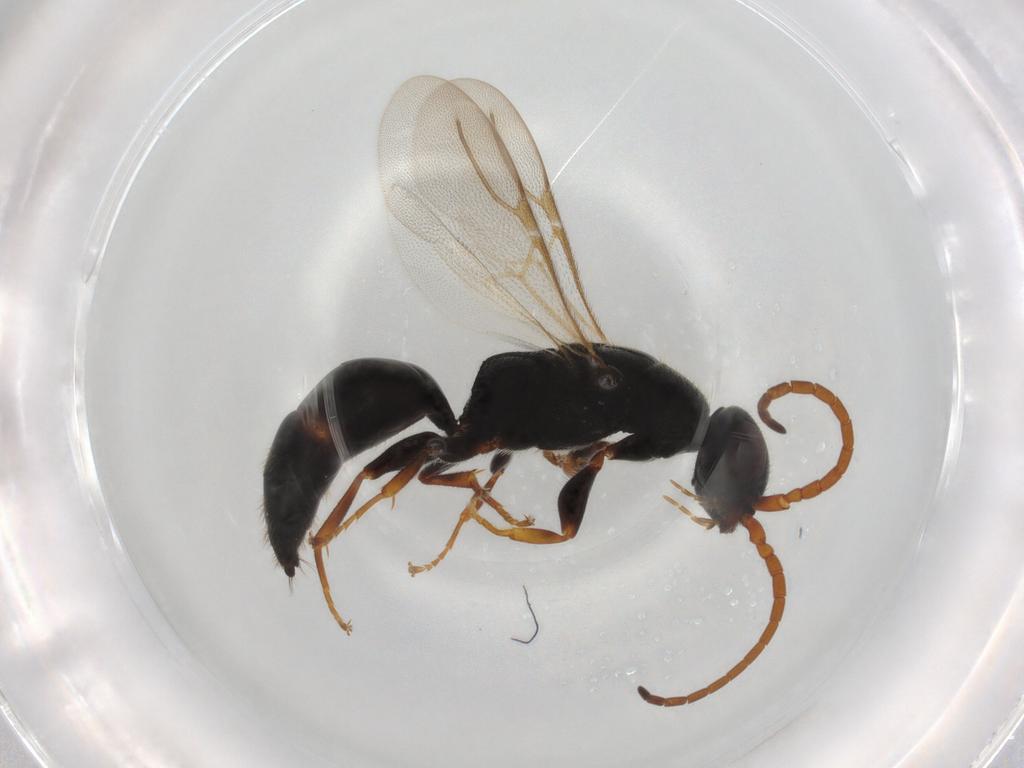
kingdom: Animalia
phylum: Arthropoda
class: Insecta
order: Hymenoptera
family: Bethylidae
